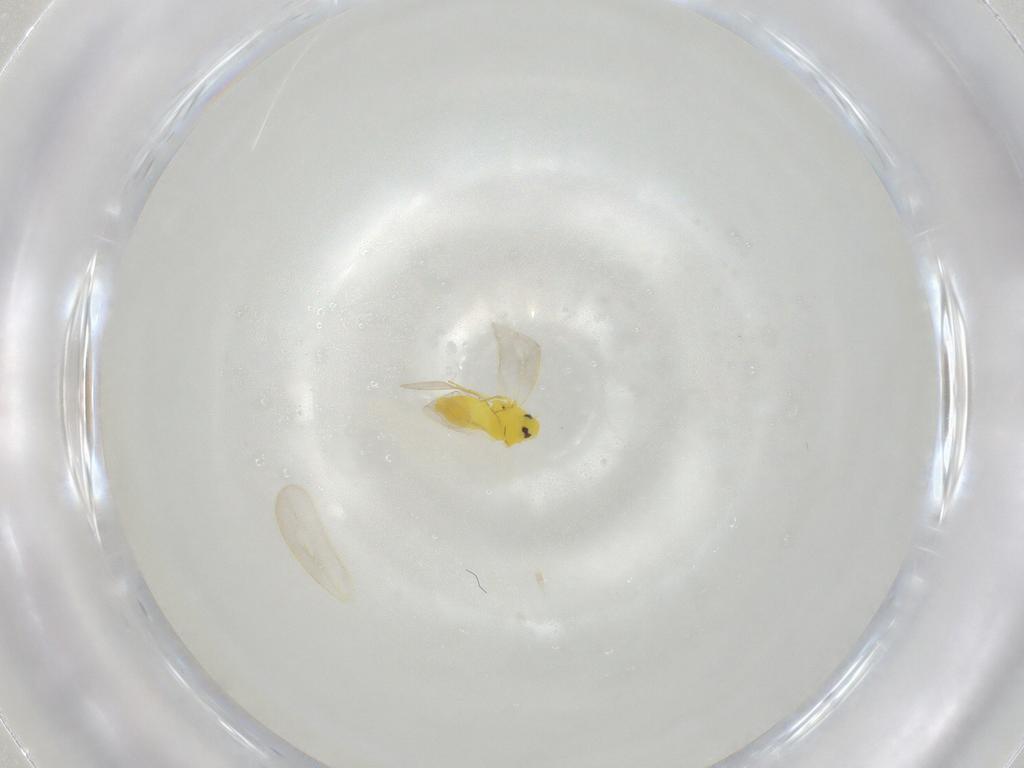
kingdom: Animalia
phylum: Arthropoda
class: Insecta
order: Hemiptera
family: Aleyrodidae
